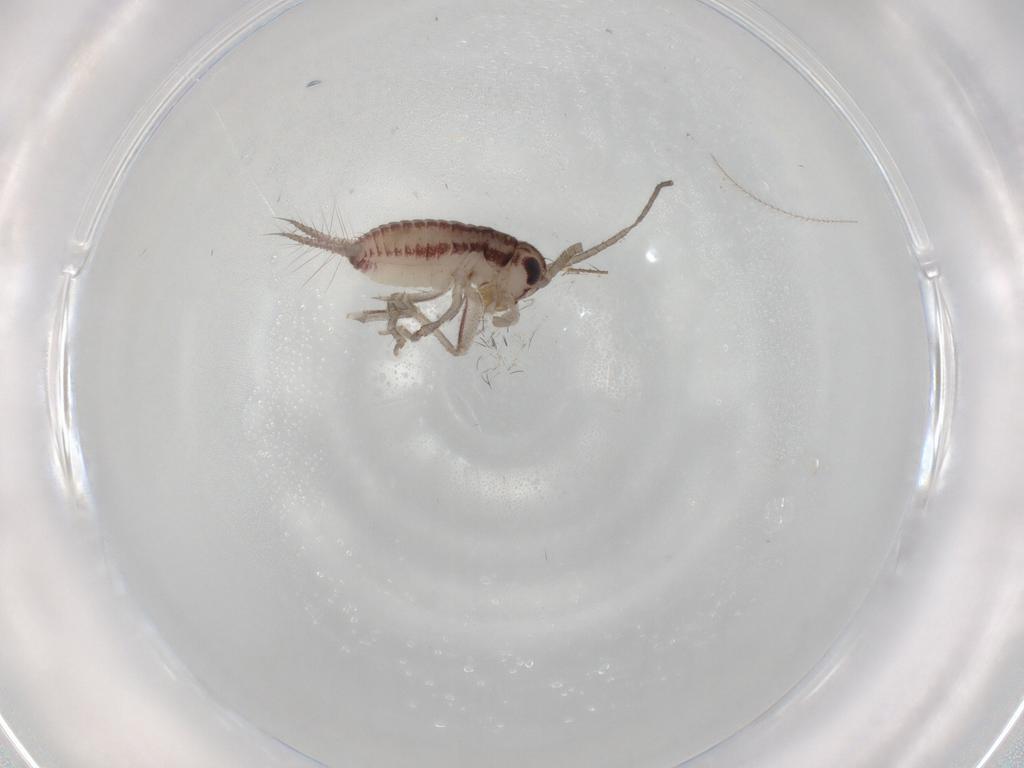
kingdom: Animalia
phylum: Arthropoda
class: Insecta
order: Orthoptera
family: Trigonidiidae
